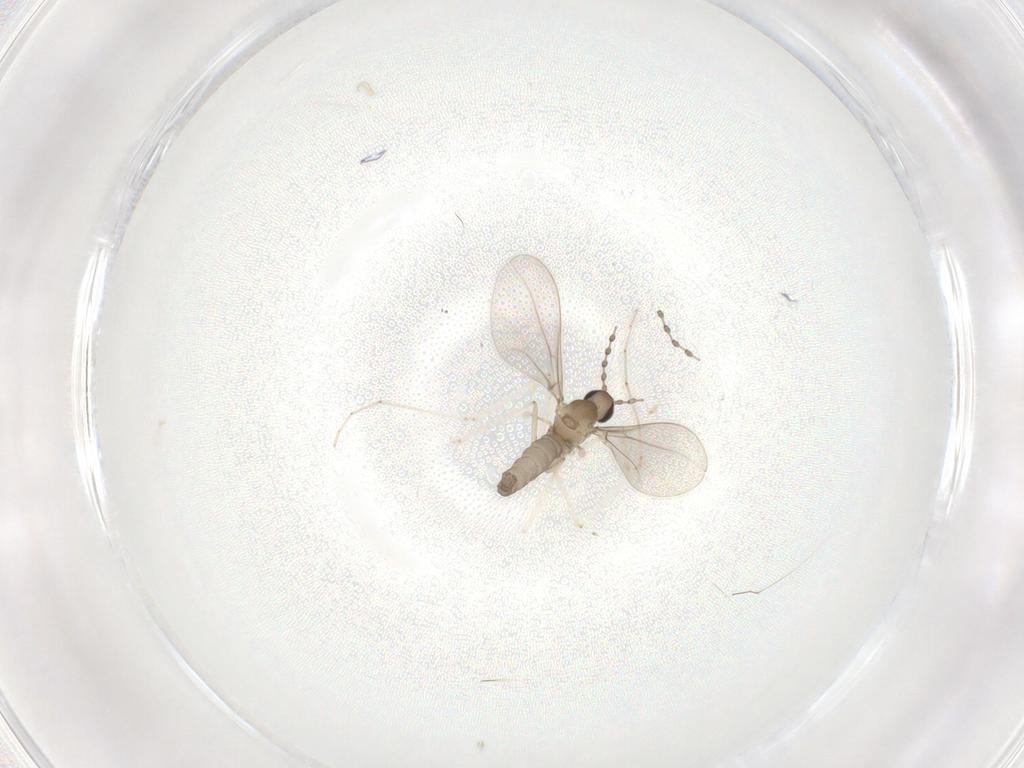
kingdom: Animalia
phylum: Arthropoda
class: Insecta
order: Diptera
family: Cecidomyiidae
